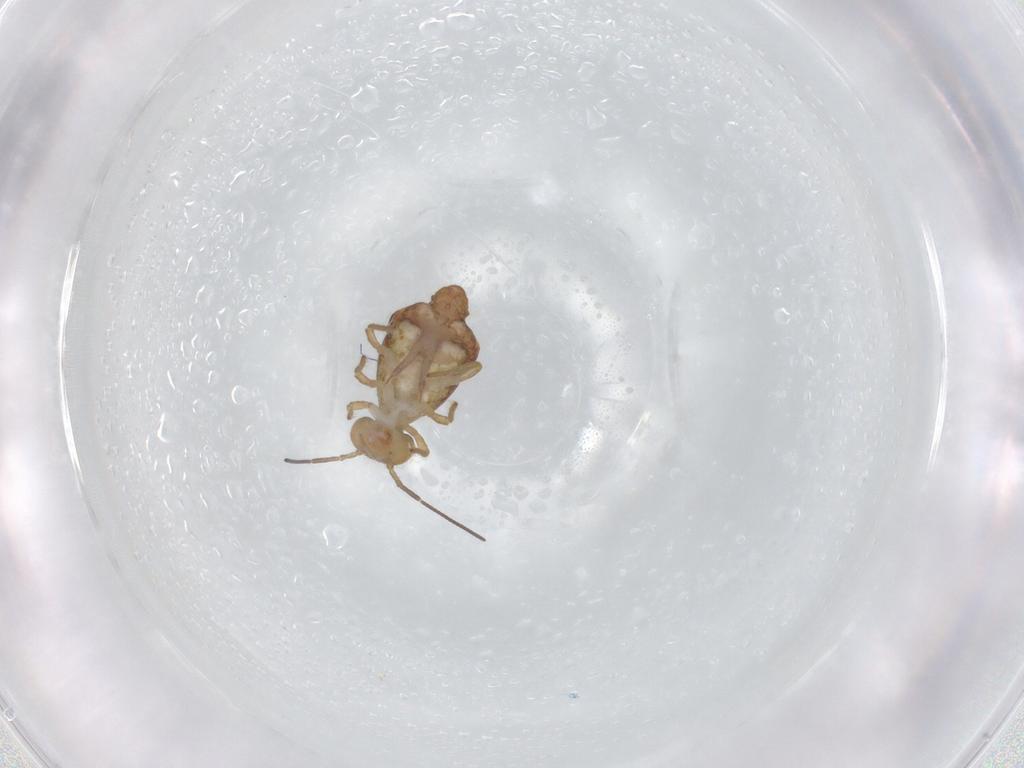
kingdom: Animalia
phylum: Arthropoda
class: Collembola
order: Symphypleona
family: Sminthuridae
